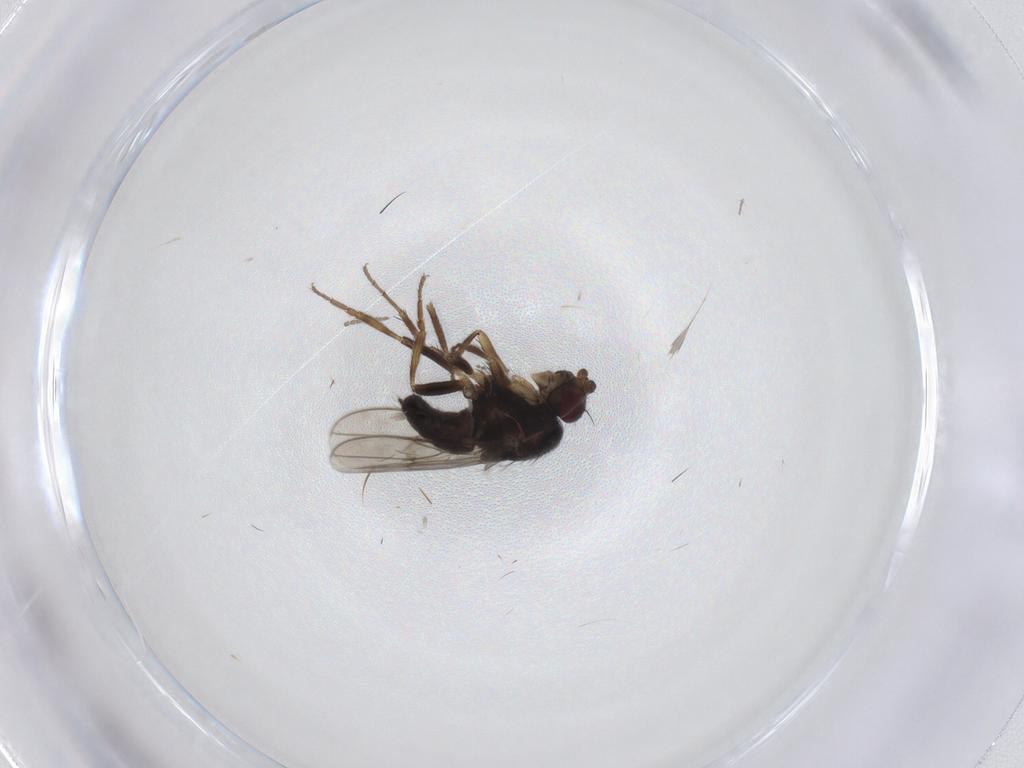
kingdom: Animalia
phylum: Arthropoda
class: Insecta
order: Diptera
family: Sphaeroceridae
